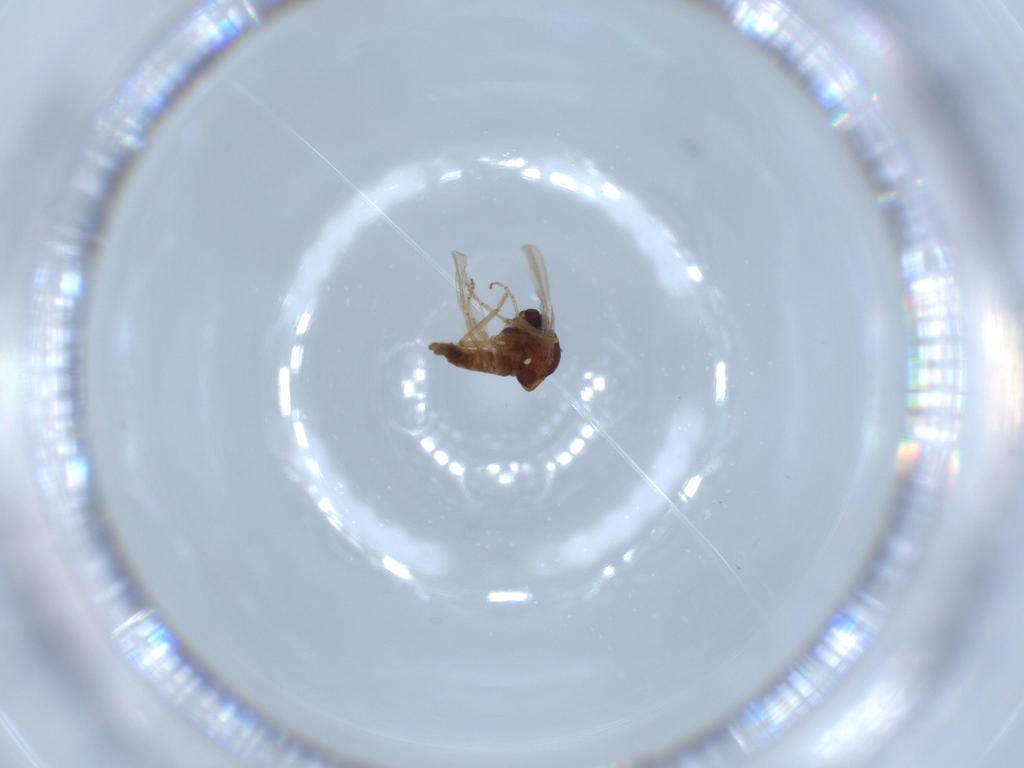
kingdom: Animalia
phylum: Arthropoda
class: Insecta
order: Diptera
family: Ceratopogonidae
